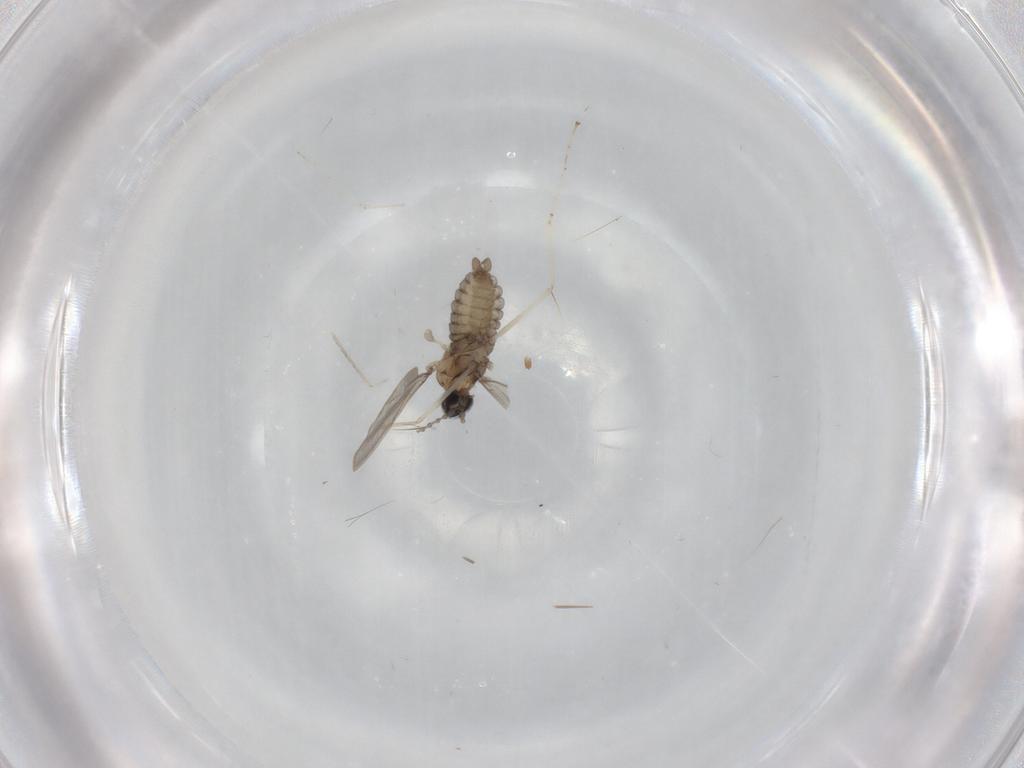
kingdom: Animalia
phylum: Arthropoda
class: Insecta
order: Diptera
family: Cecidomyiidae
